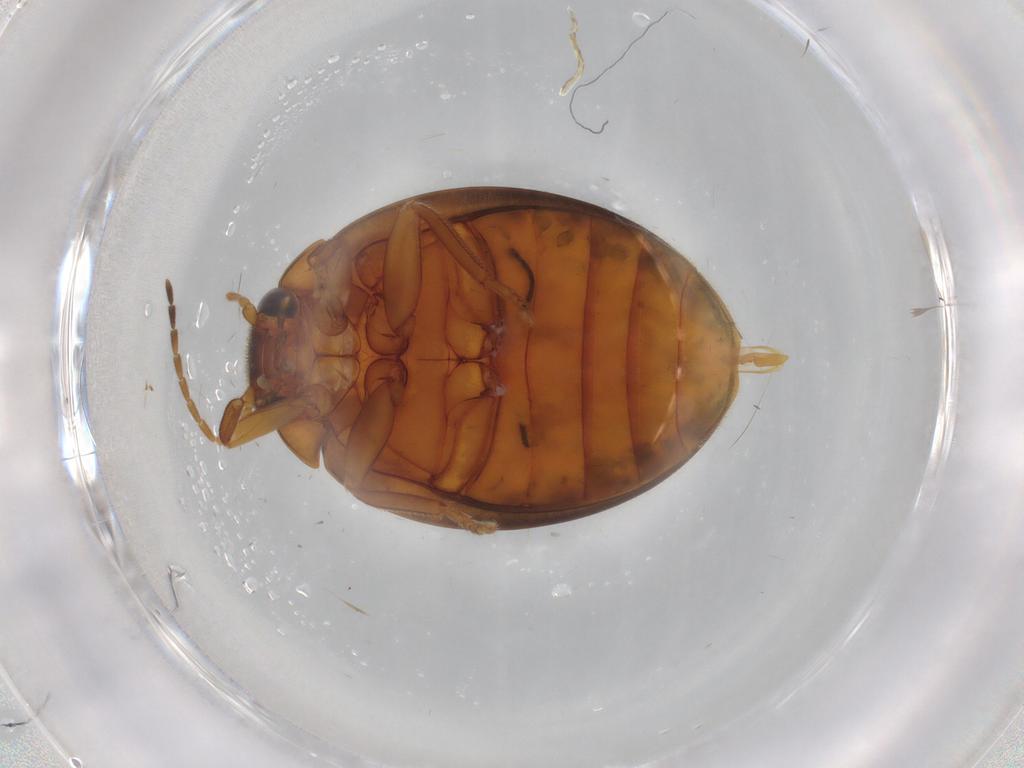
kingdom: Animalia
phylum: Arthropoda
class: Insecta
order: Coleoptera
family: Scirtidae
